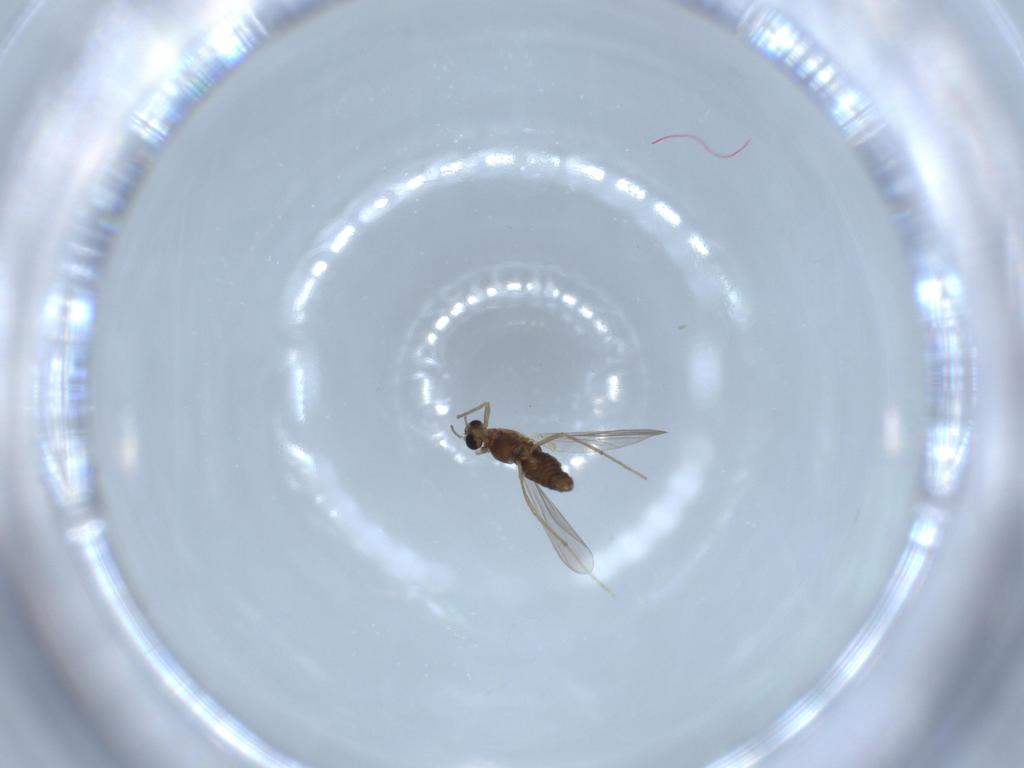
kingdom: Animalia
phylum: Arthropoda
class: Insecta
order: Diptera
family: Chironomidae
